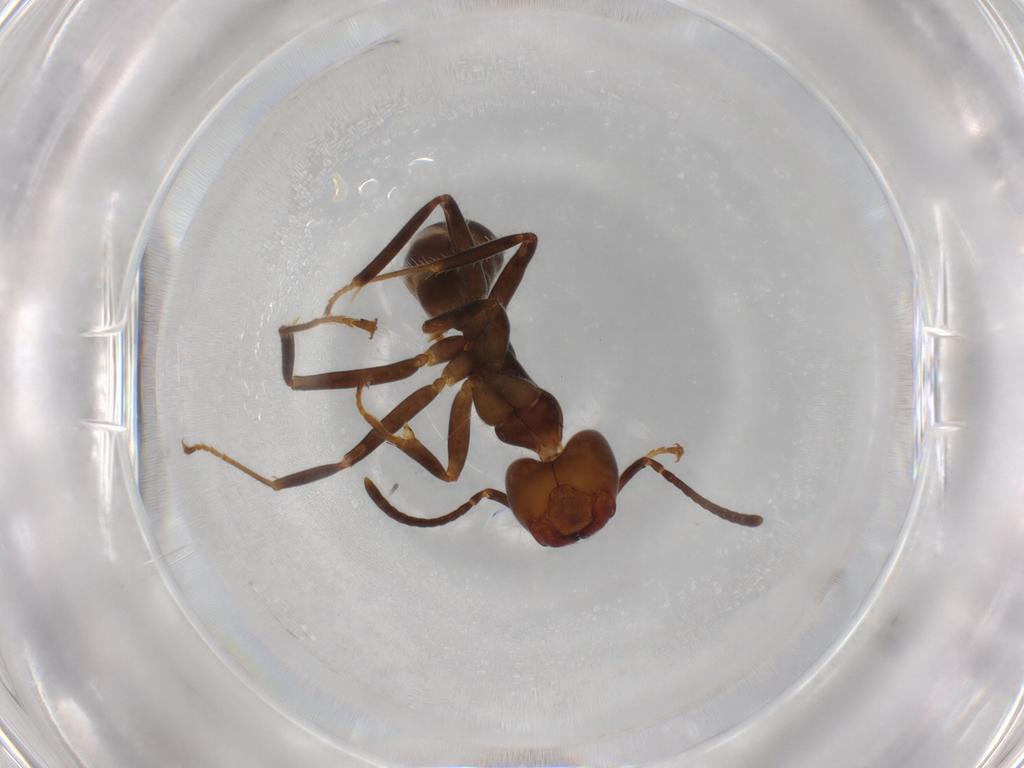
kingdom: Animalia
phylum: Arthropoda
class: Insecta
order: Hymenoptera
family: Formicidae
